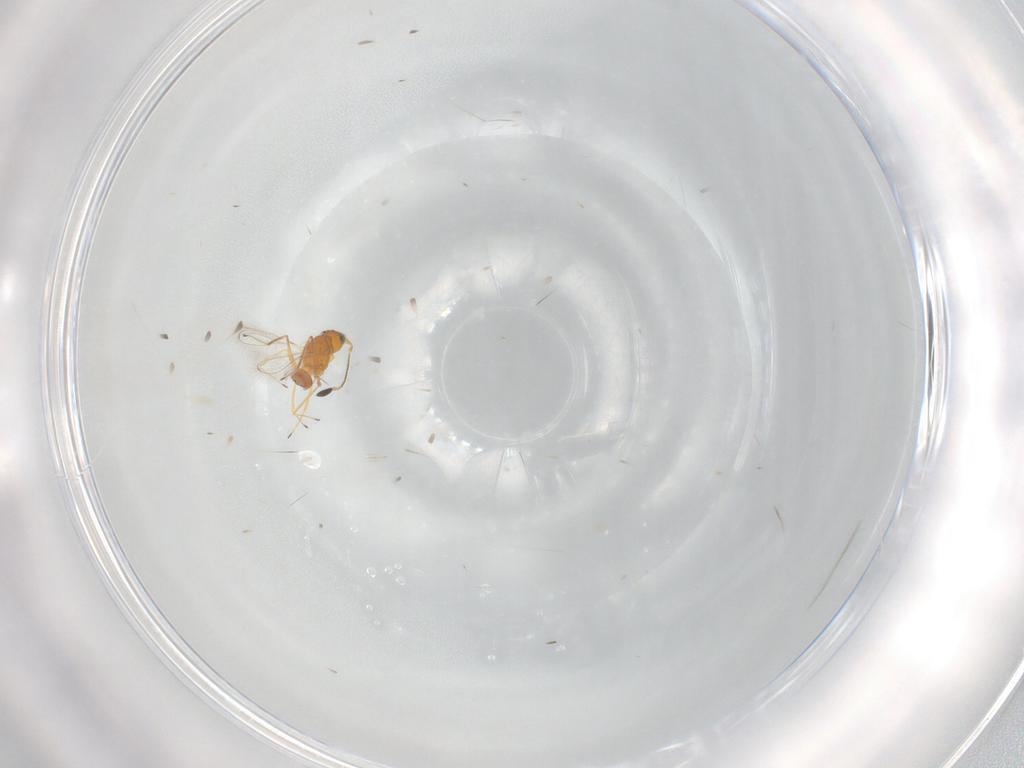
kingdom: Animalia
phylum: Arthropoda
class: Insecta
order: Hymenoptera
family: Mymaridae
